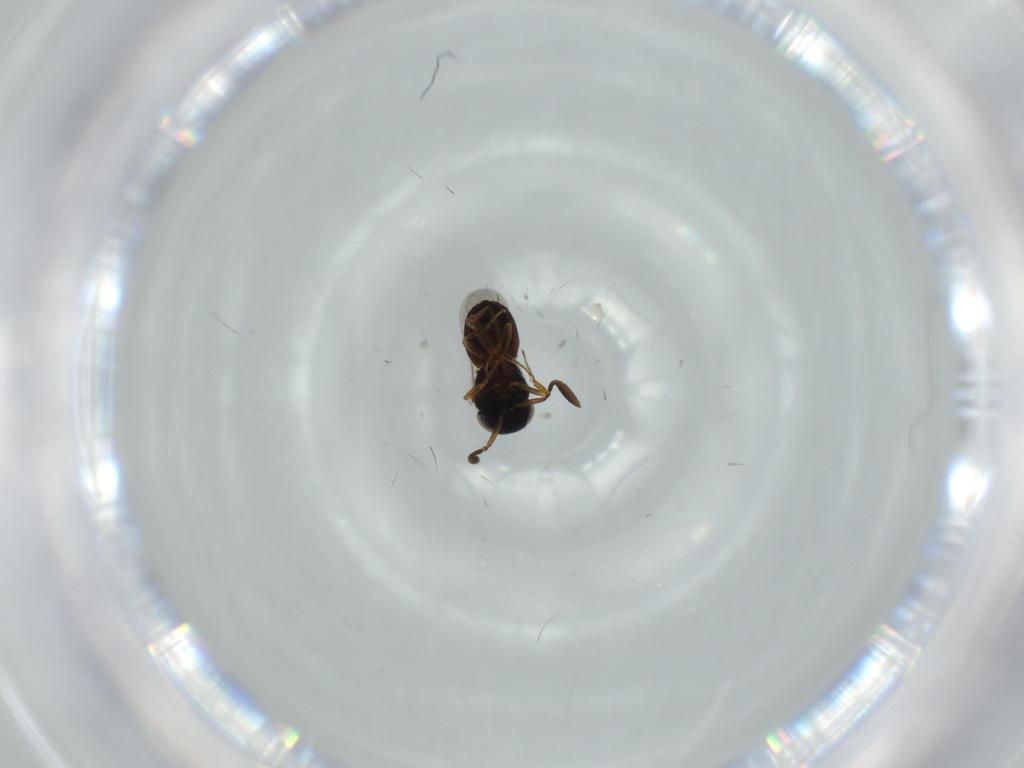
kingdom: Animalia
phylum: Arthropoda
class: Insecta
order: Hymenoptera
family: Scelionidae
